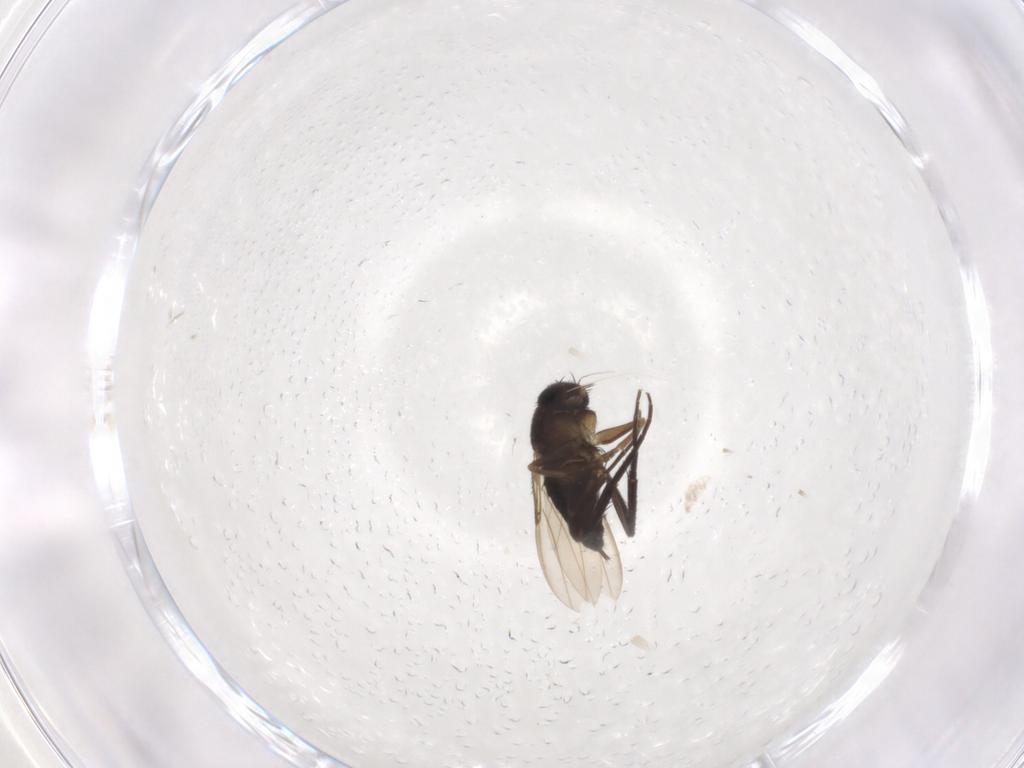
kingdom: Animalia
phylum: Arthropoda
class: Insecta
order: Diptera
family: Phoridae
